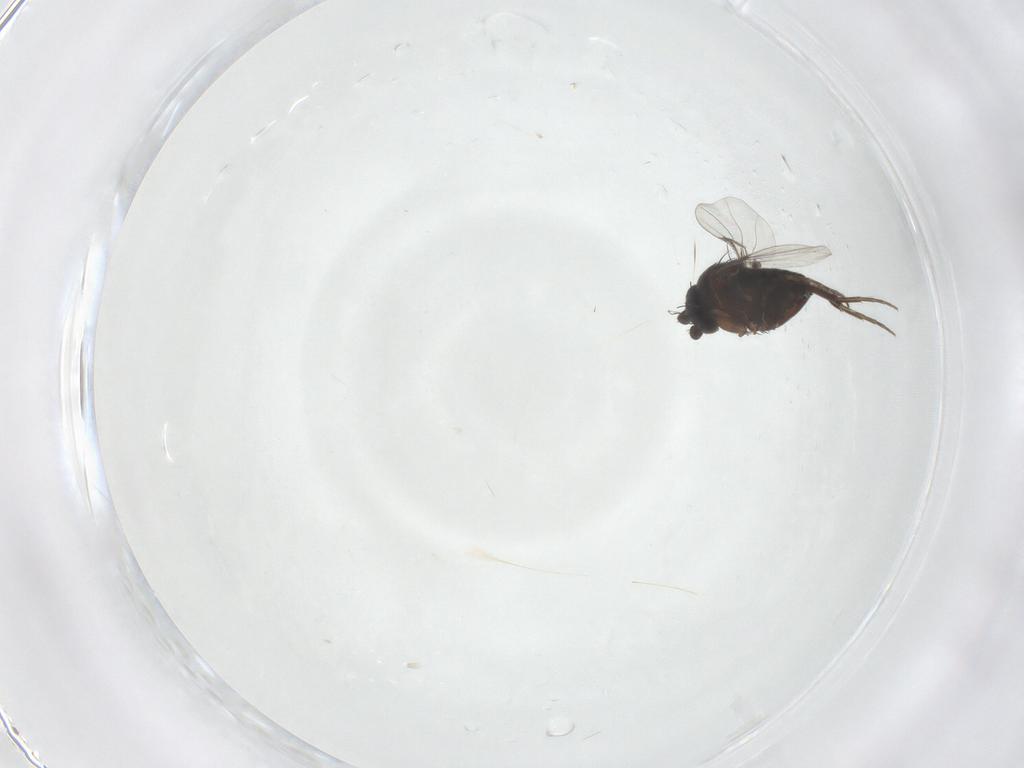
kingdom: Animalia
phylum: Arthropoda
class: Insecta
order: Diptera
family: Phoridae
